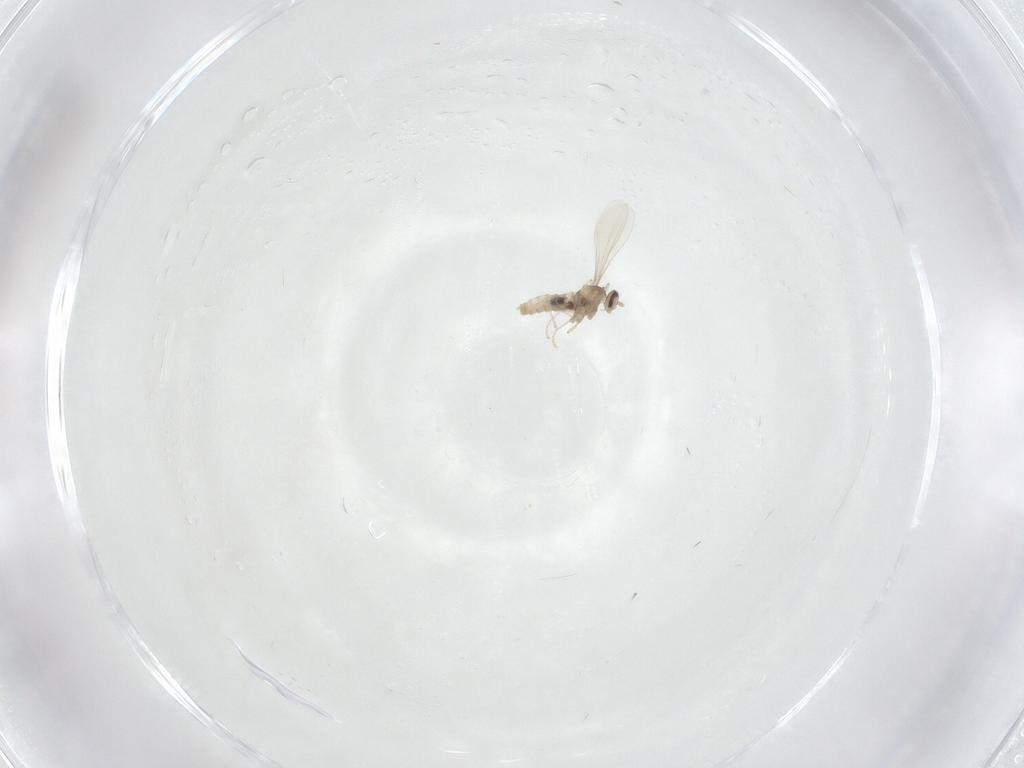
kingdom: Animalia
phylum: Arthropoda
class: Insecta
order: Diptera
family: Cecidomyiidae
